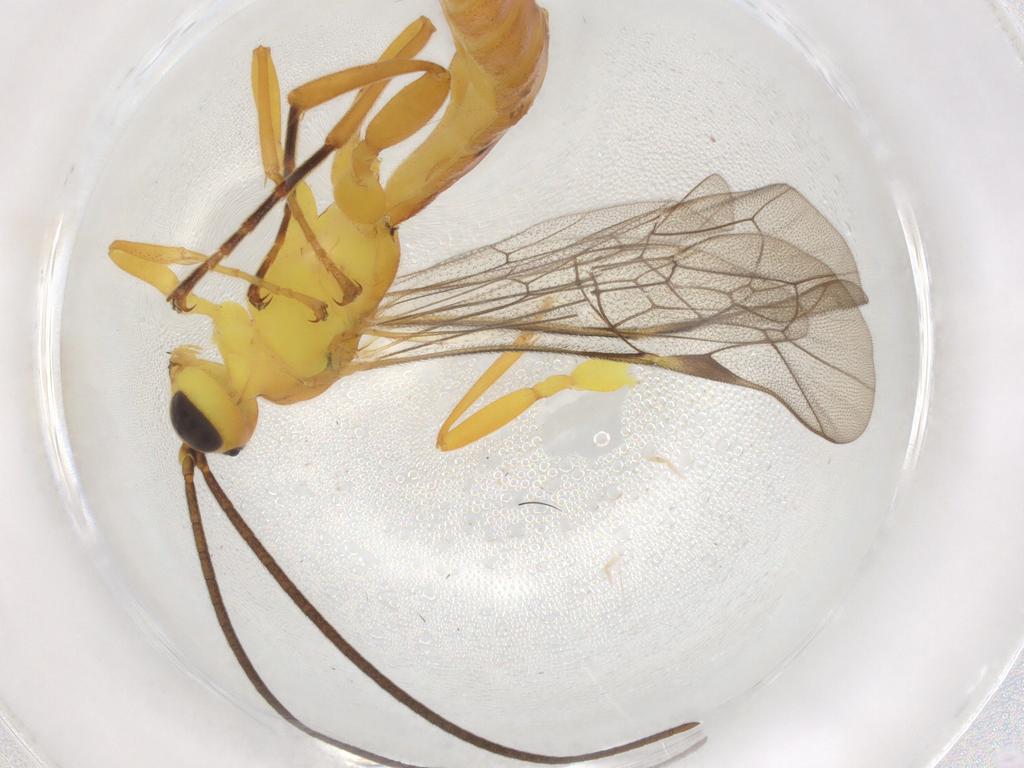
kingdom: Animalia
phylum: Arthropoda
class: Insecta
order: Hymenoptera
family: Ichneumonidae
